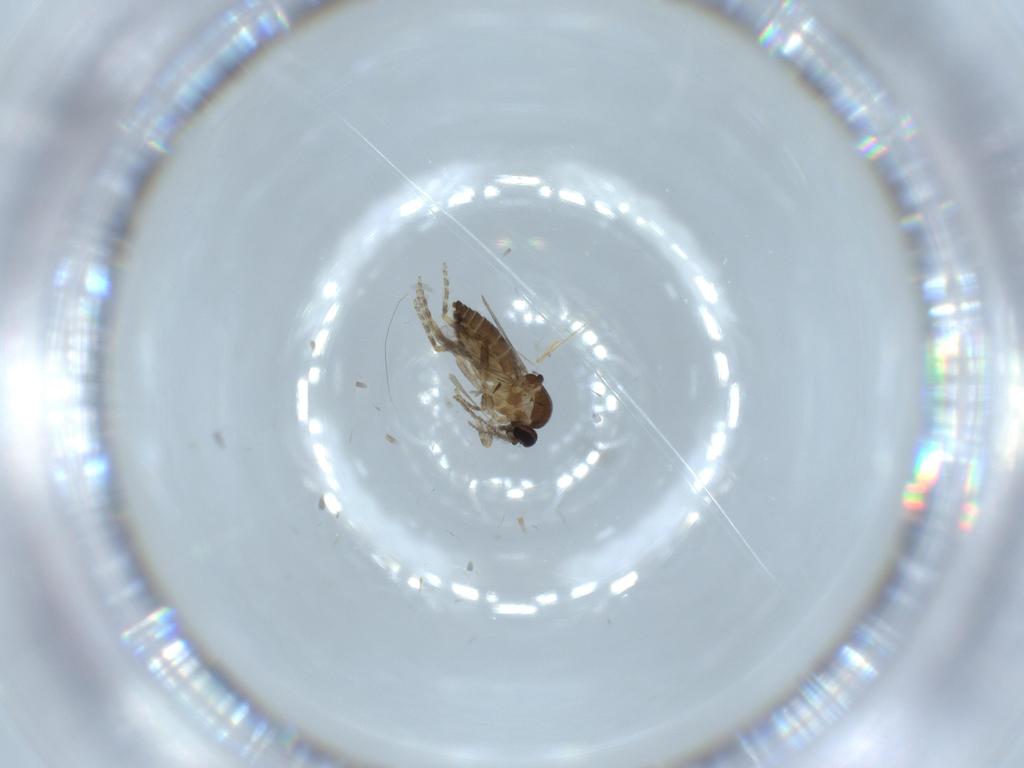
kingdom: Animalia
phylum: Arthropoda
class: Insecta
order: Diptera
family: Ceratopogonidae
